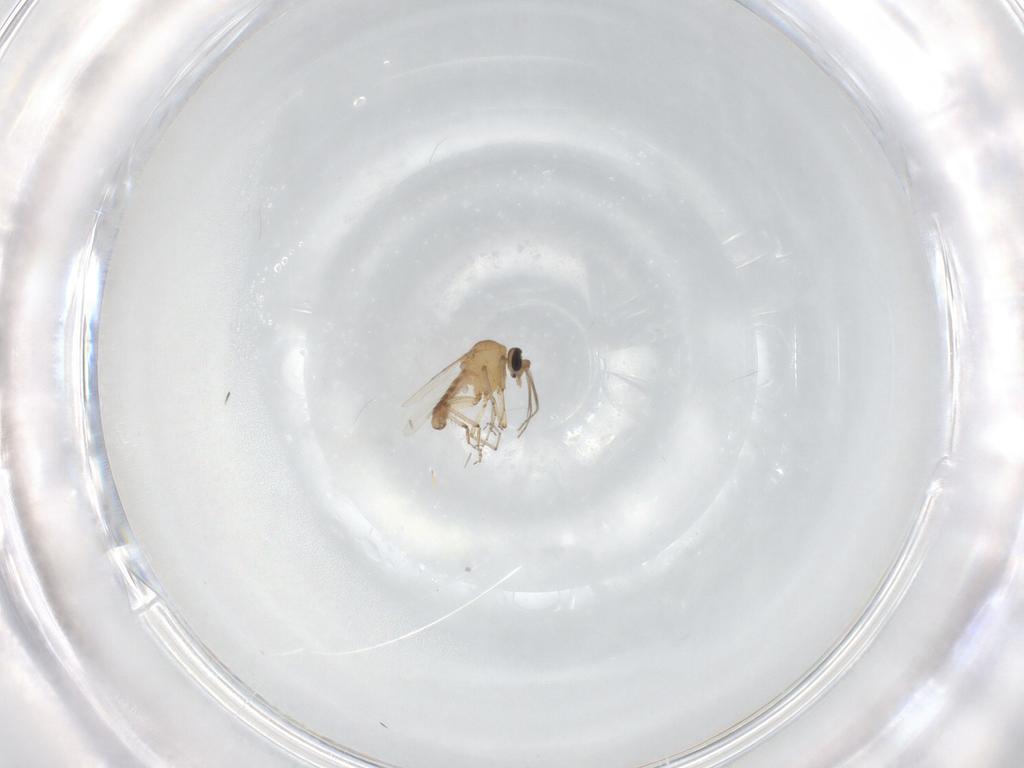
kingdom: Animalia
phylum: Arthropoda
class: Insecta
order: Diptera
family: Ceratopogonidae
